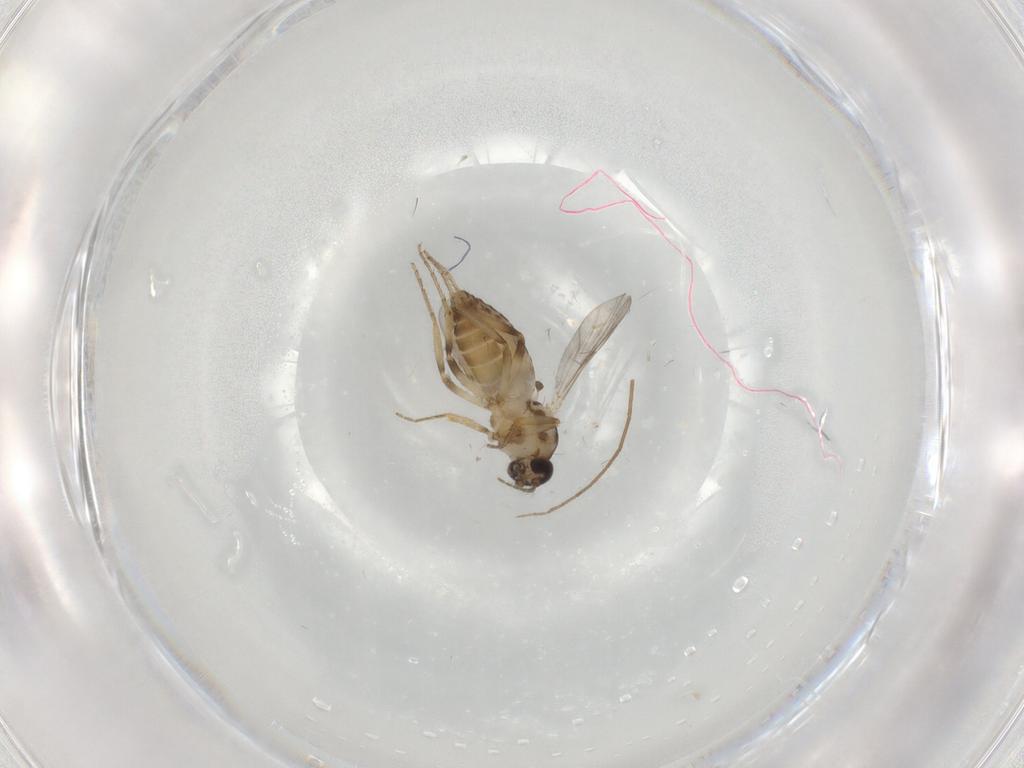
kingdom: Animalia
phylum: Arthropoda
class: Insecta
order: Diptera
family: Ceratopogonidae
